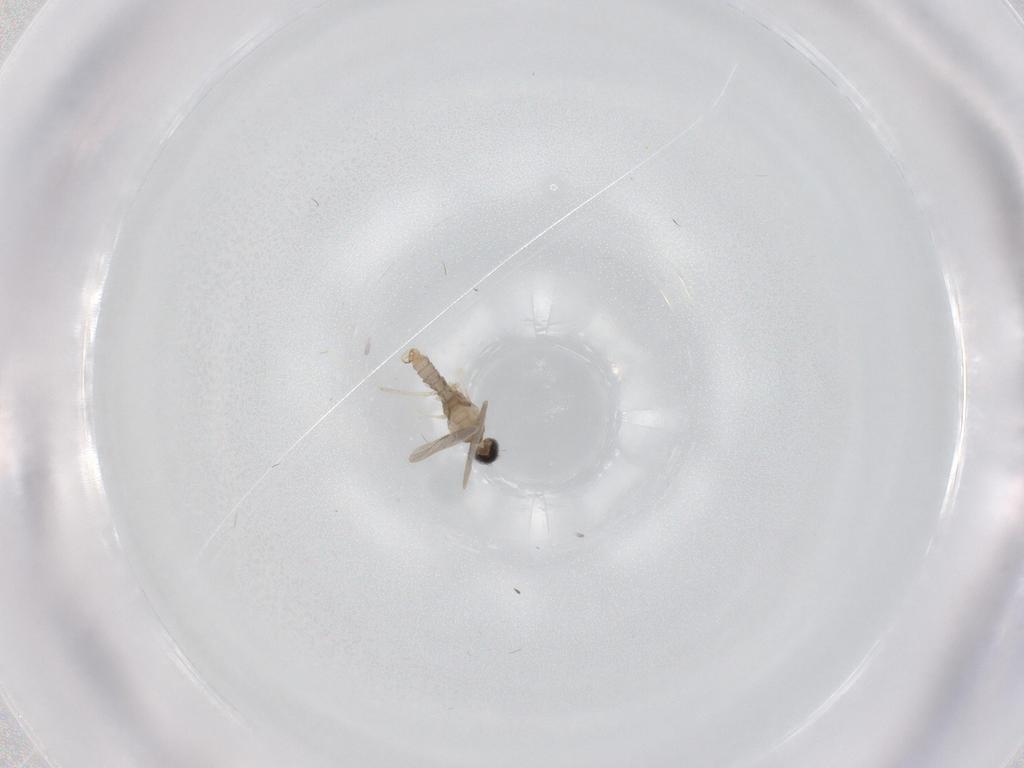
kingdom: Animalia
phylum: Arthropoda
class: Insecta
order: Diptera
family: Cecidomyiidae
